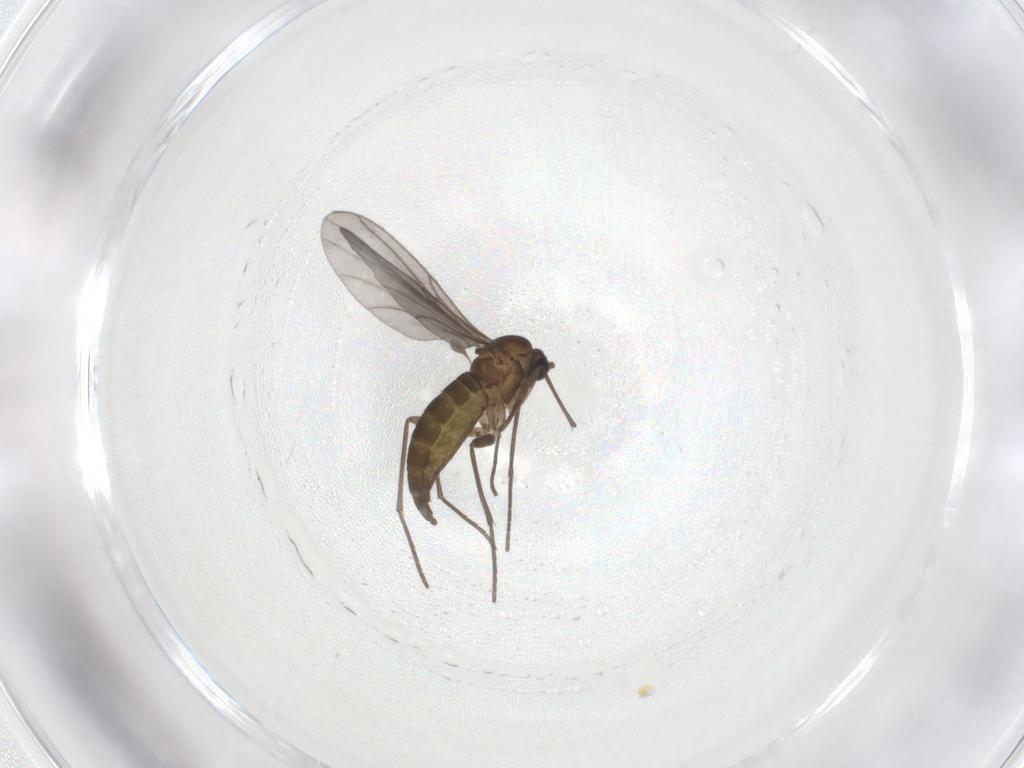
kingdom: Animalia
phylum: Arthropoda
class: Insecta
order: Diptera
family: Sciaridae
